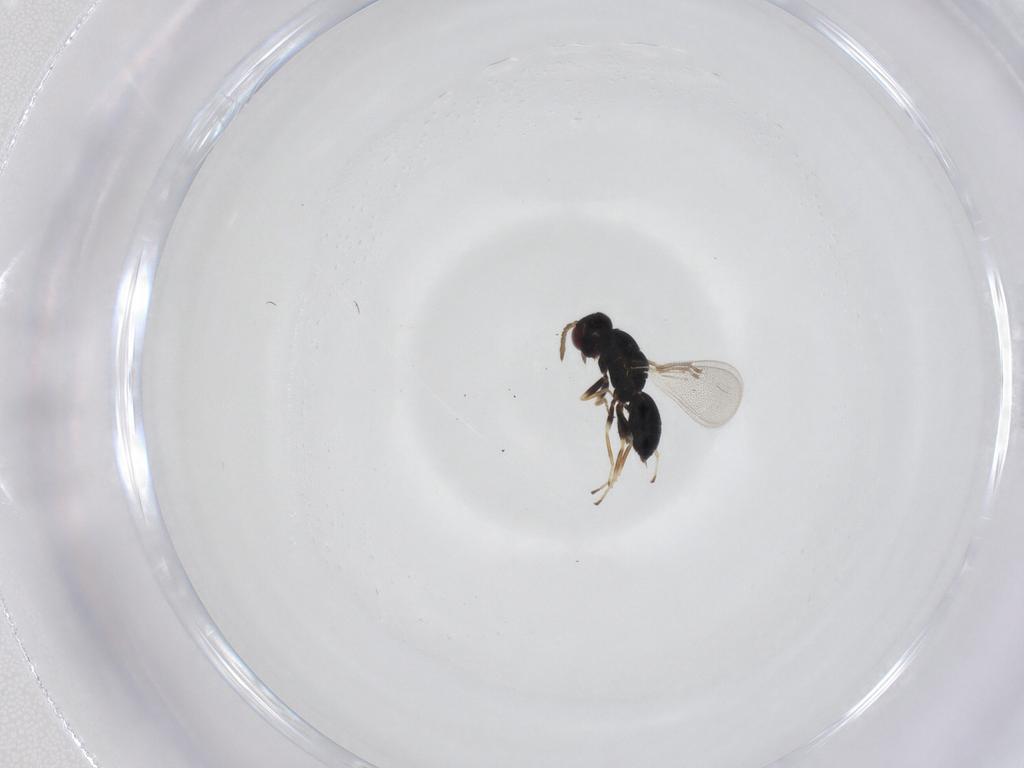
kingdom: Animalia
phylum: Arthropoda
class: Insecta
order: Hymenoptera
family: Eulophidae
